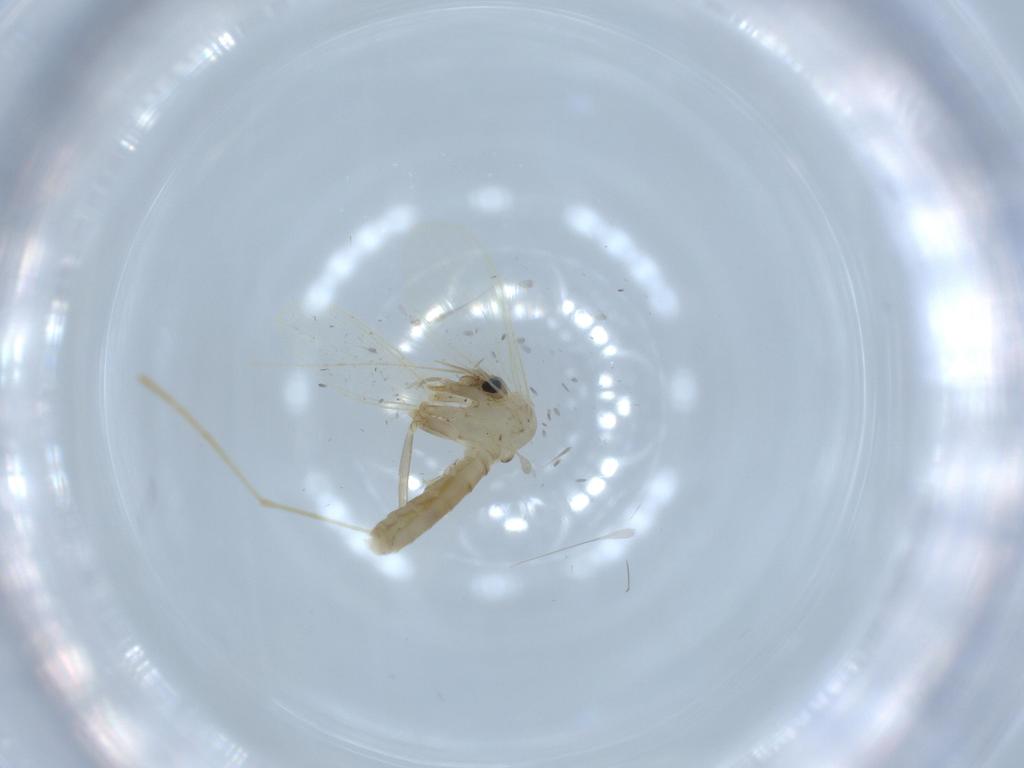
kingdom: Animalia
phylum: Arthropoda
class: Insecta
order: Diptera
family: Psychodidae
